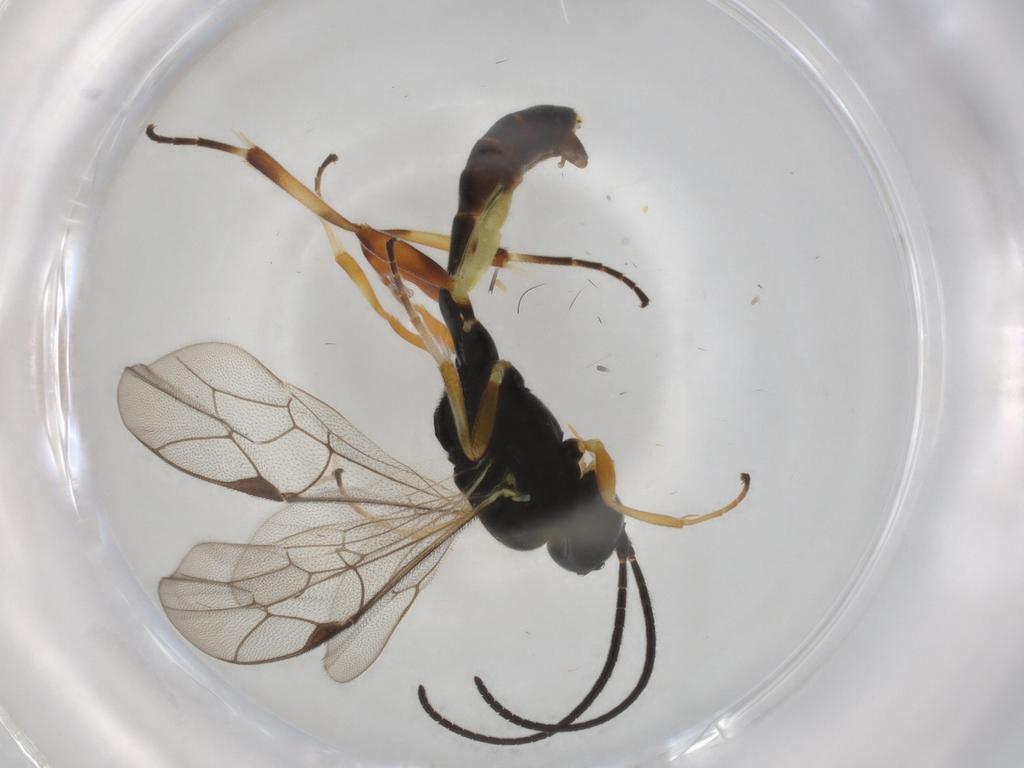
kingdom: Animalia
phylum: Arthropoda
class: Insecta
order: Hymenoptera
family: Ichneumonidae
